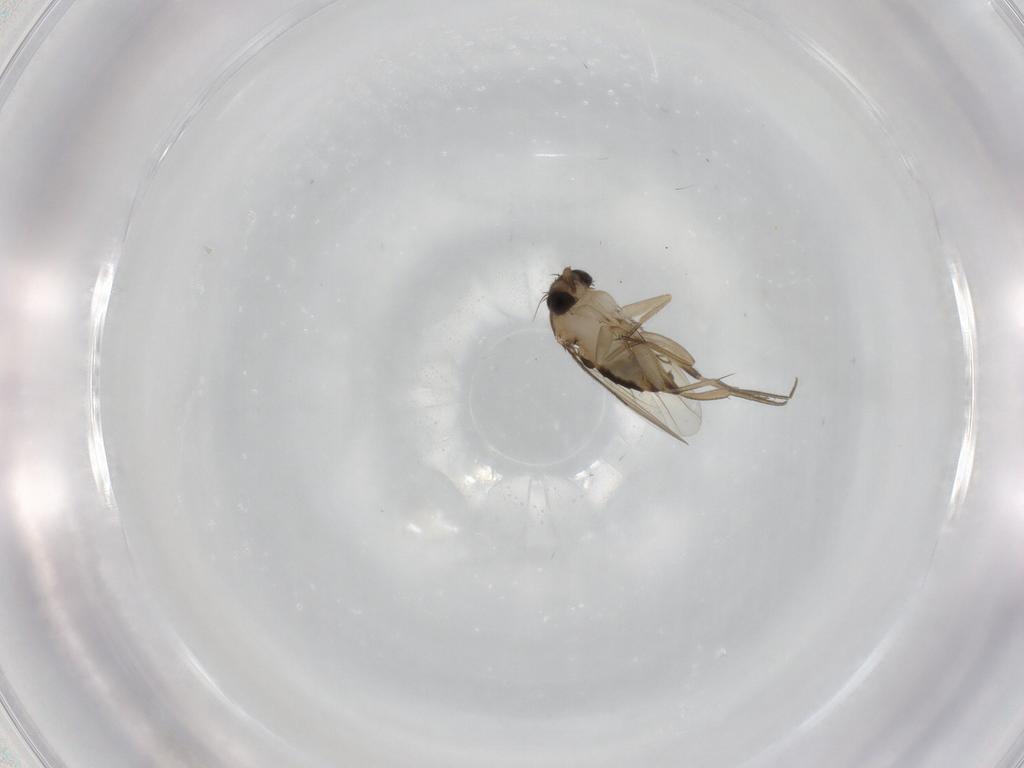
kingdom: Animalia
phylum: Arthropoda
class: Insecta
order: Diptera
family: Phoridae
